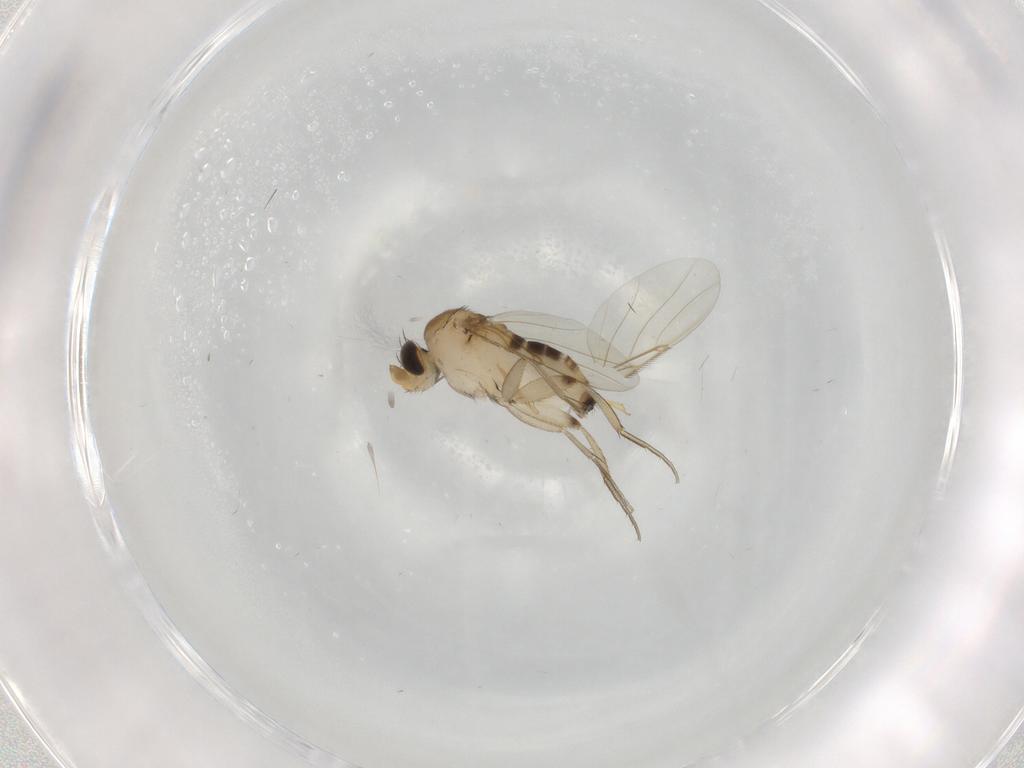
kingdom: Animalia
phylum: Arthropoda
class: Insecta
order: Diptera
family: Phoridae
